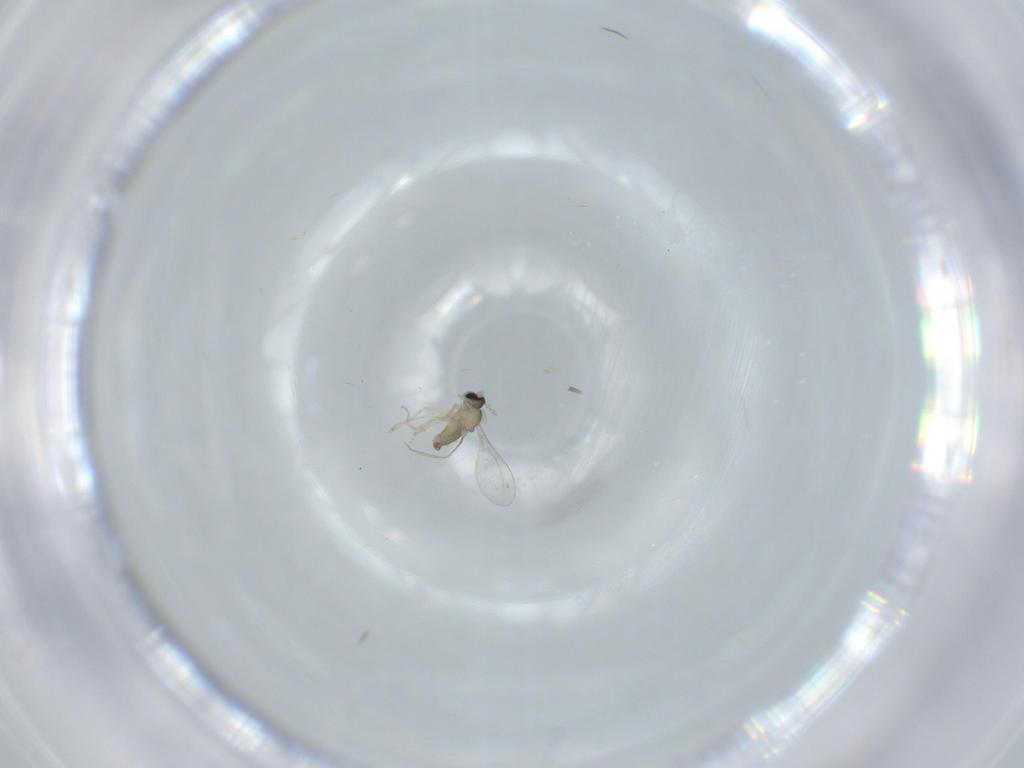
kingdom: Animalia
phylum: Arthropoda
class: Insecta
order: Diptera
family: Cecidomyiidae
